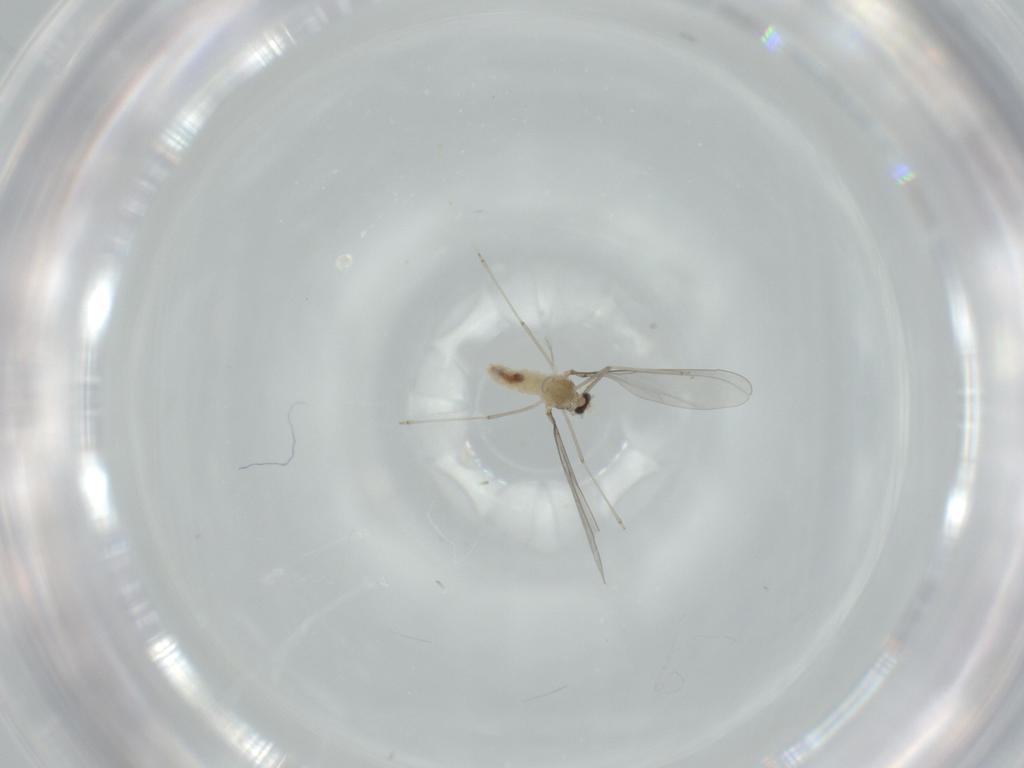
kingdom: Animalia
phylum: Arthropoda
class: Insecta
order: Diptera
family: Cecidomyiidae
